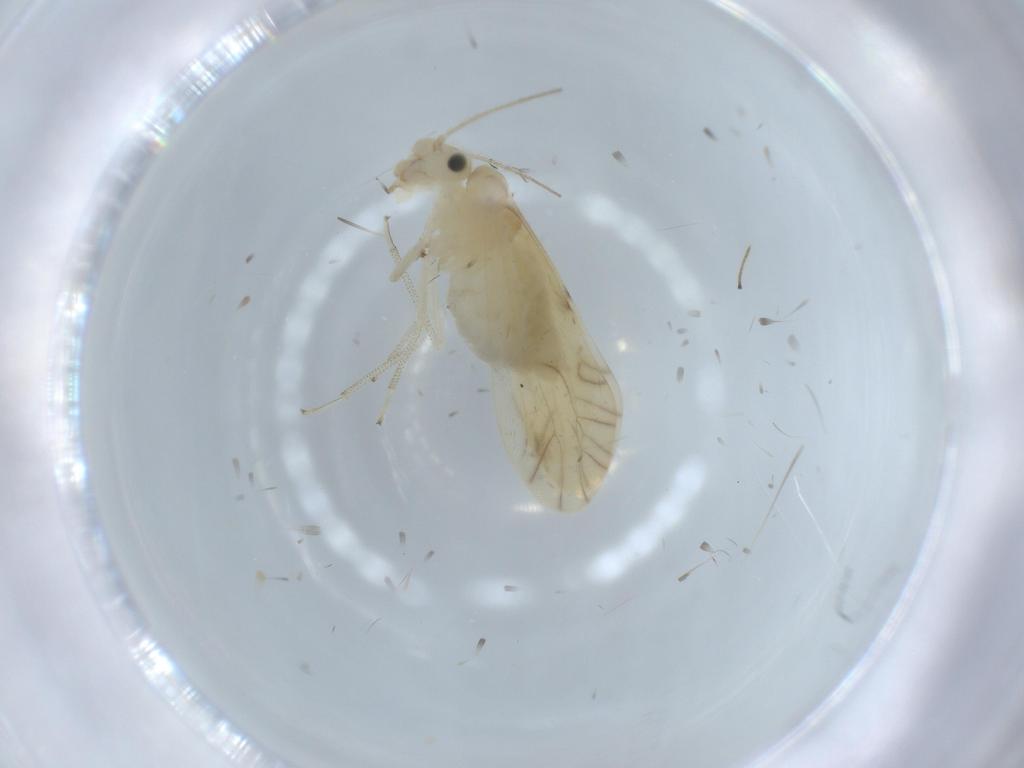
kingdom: Animalia
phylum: Arthropoda
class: Insecta
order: Psocodea
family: Caeciliusidae
